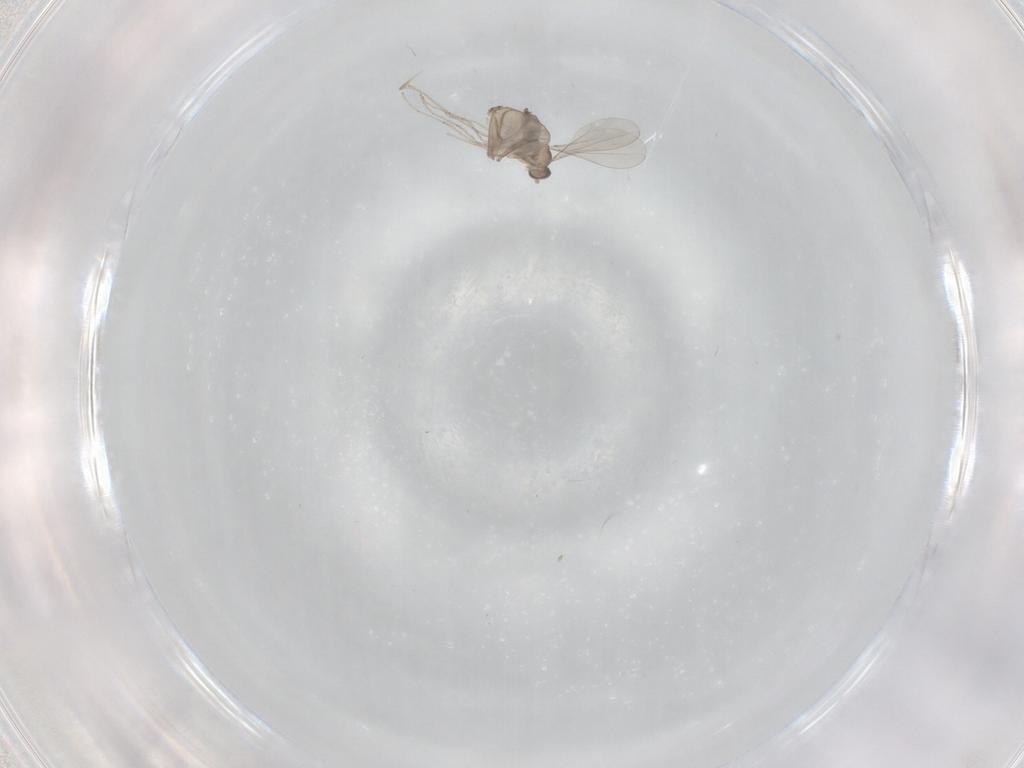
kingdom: Animalia
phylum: Arthropoda
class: Insecta
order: Diptera
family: Cecidomyiidae
